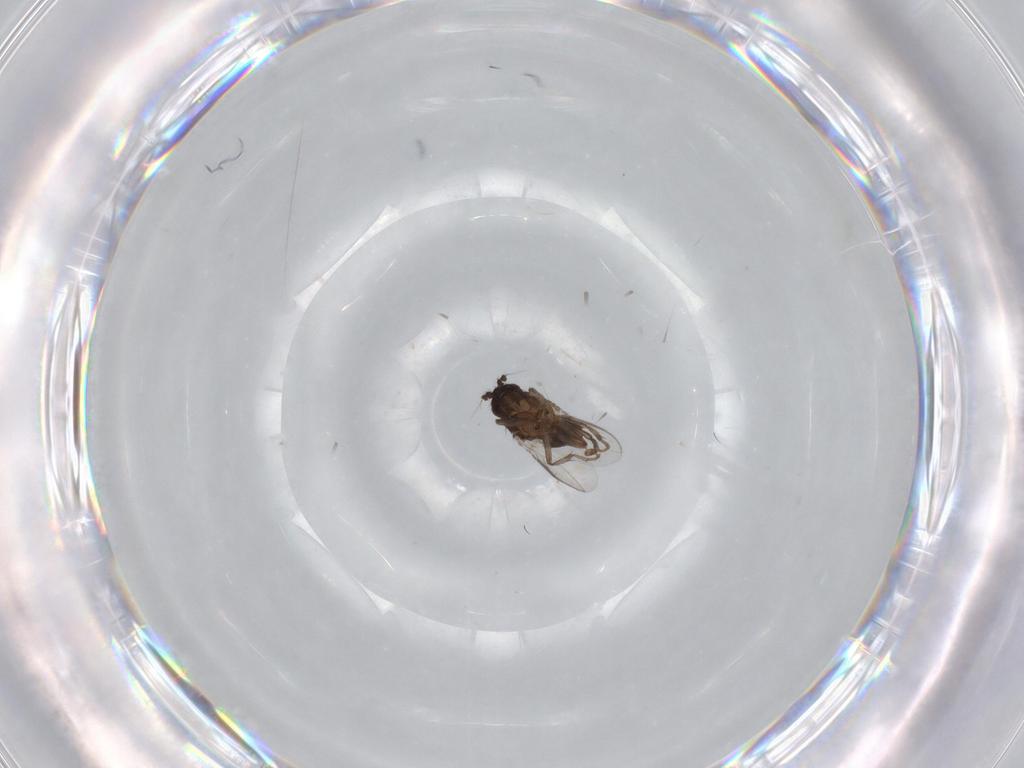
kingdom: Animalia
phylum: Arthropoda
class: Insecta
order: Diptera
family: Sphaeroceridae
